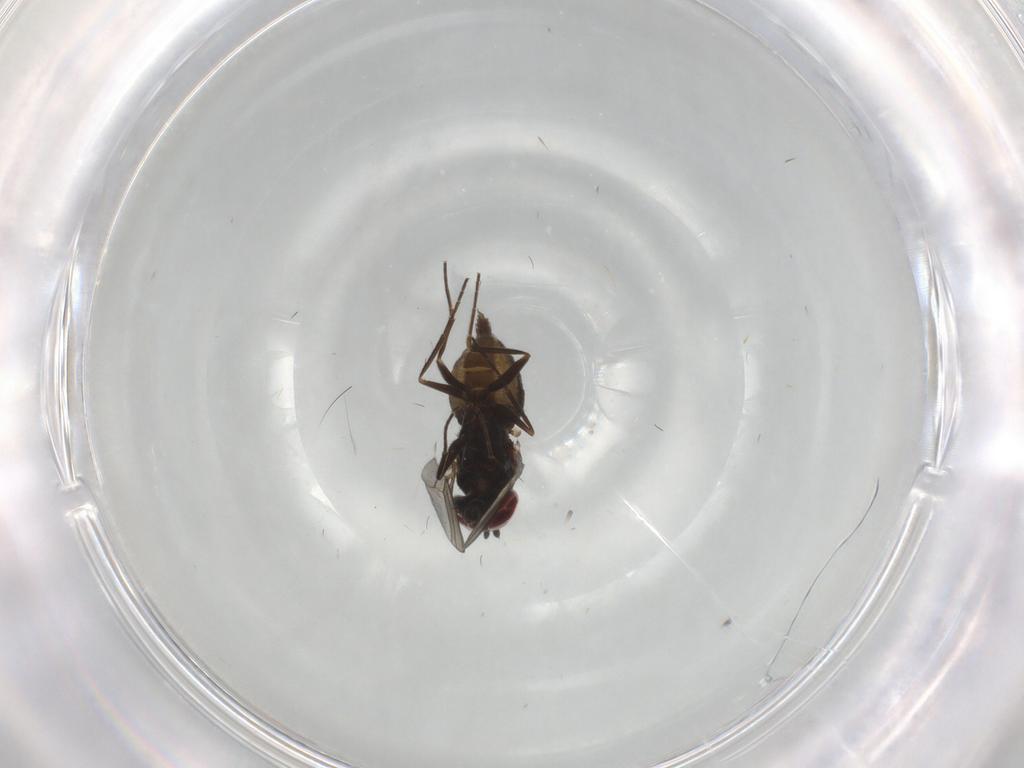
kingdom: Animalia
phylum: Arthropoda
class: Insecta
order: Diptera
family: Dolichopodidae
